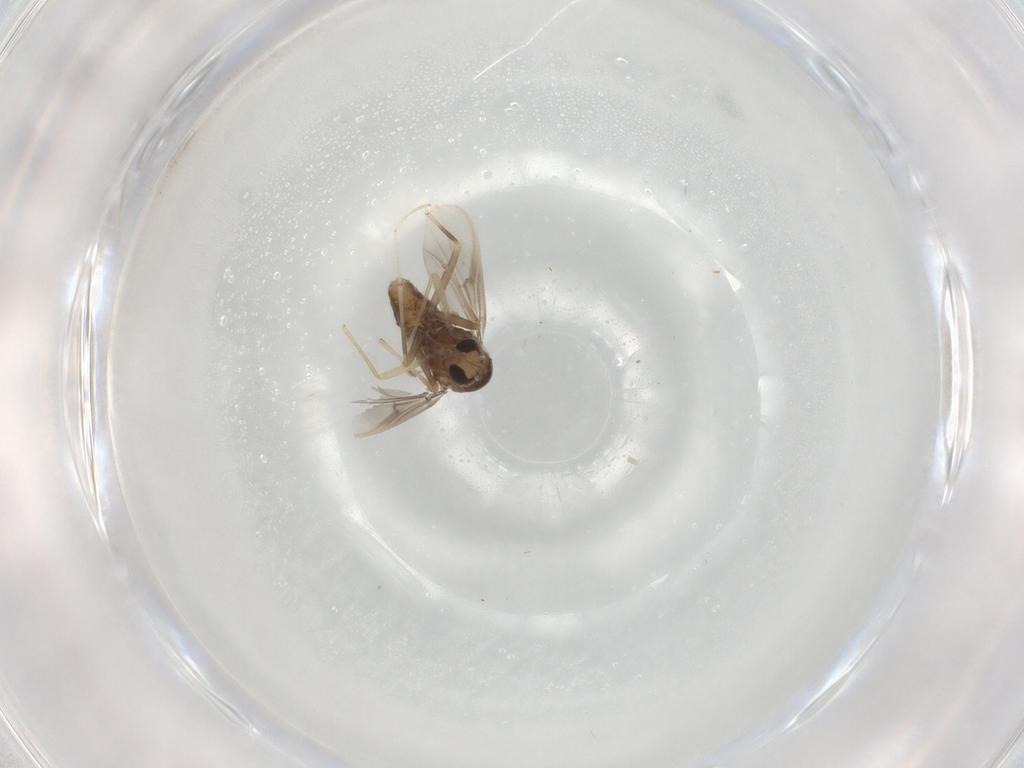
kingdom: Animalia
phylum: Arthropoda
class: Insecta
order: Diptera
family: Chironomidae
